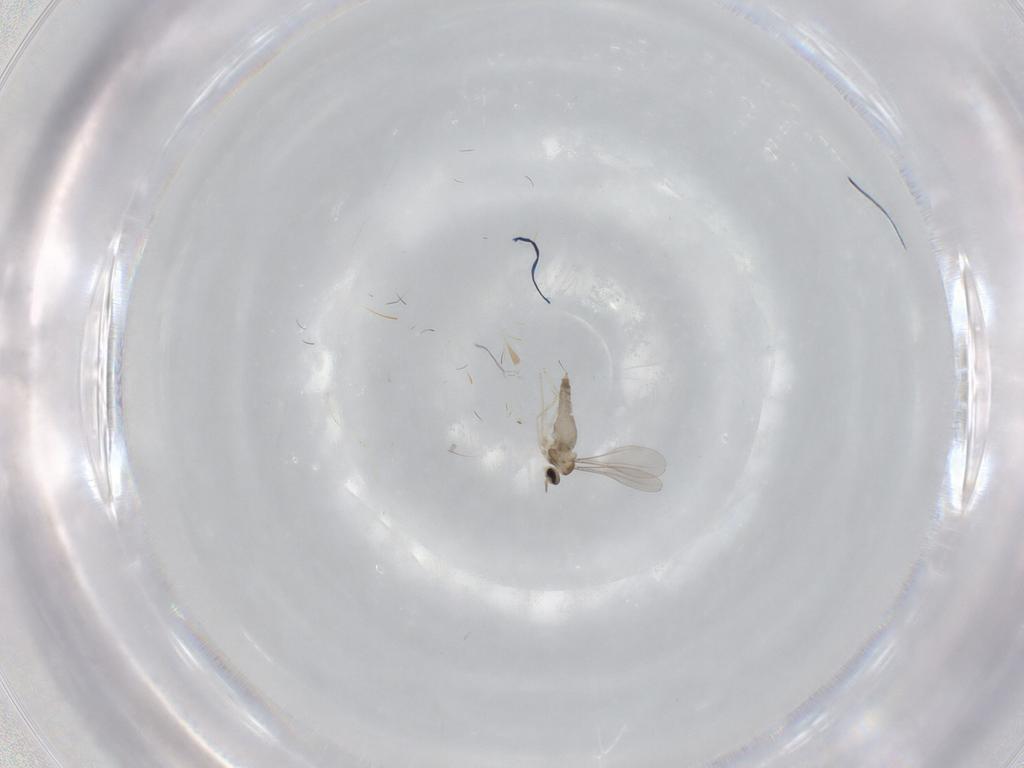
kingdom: Animalia
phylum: Arthropoda
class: Insecta
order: Diptera
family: Cecidomyiidae
